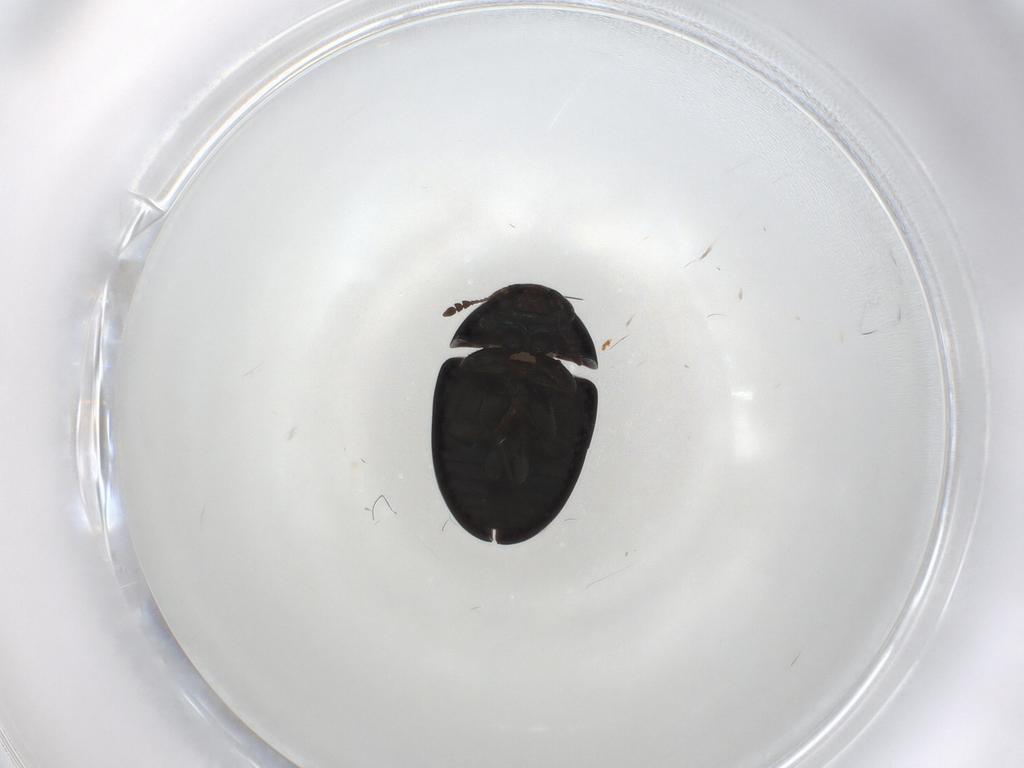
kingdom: Animalia
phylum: Arthropoda
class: Insecta
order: Coleoptera
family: Phalacridae
